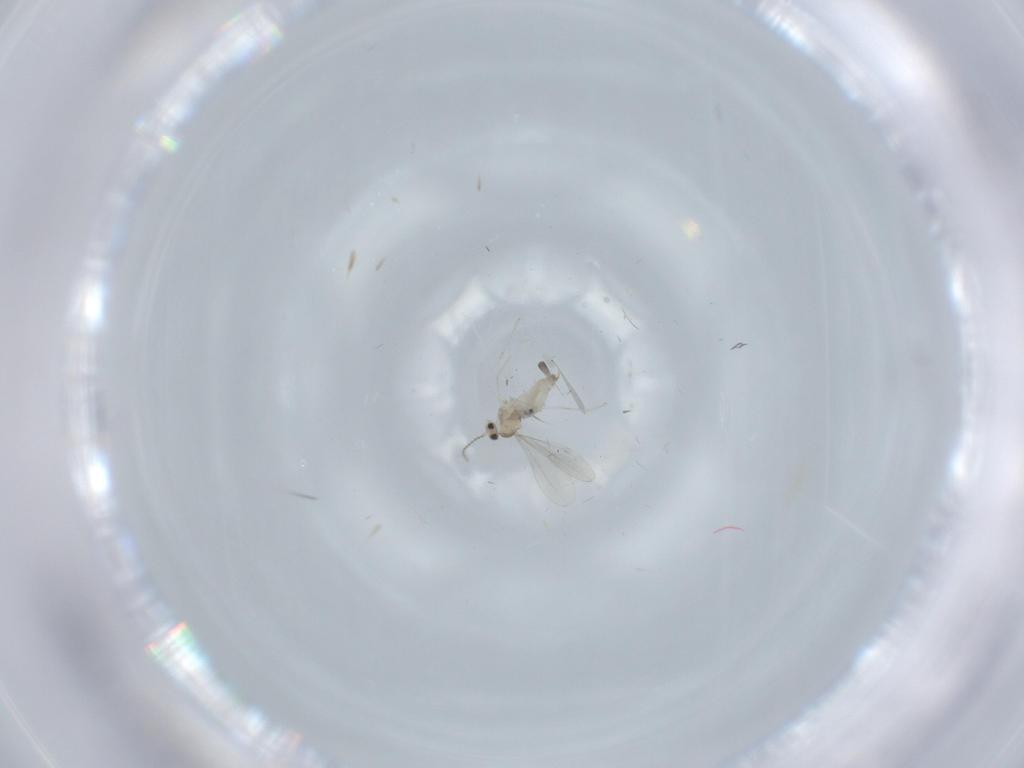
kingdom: Animalia
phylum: Arthropoda
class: Insecta
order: Diptera
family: Cecidomyiidae
